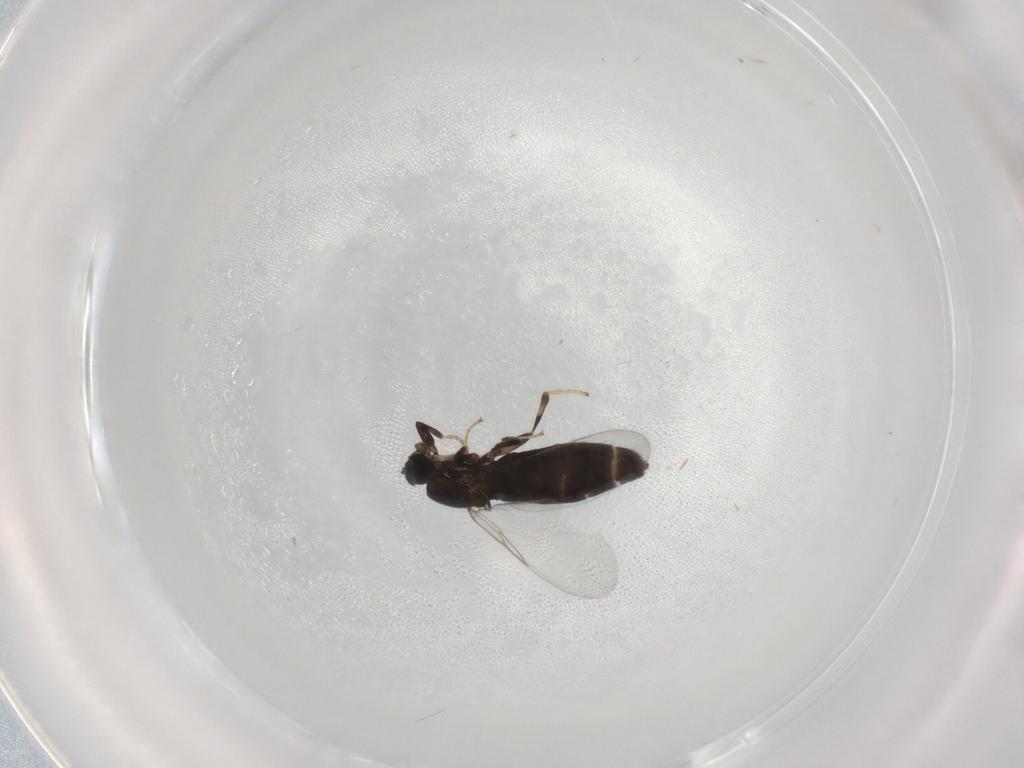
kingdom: Animalia
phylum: Arthropoda
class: Insecta
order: Diptera
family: Scatopsidae
